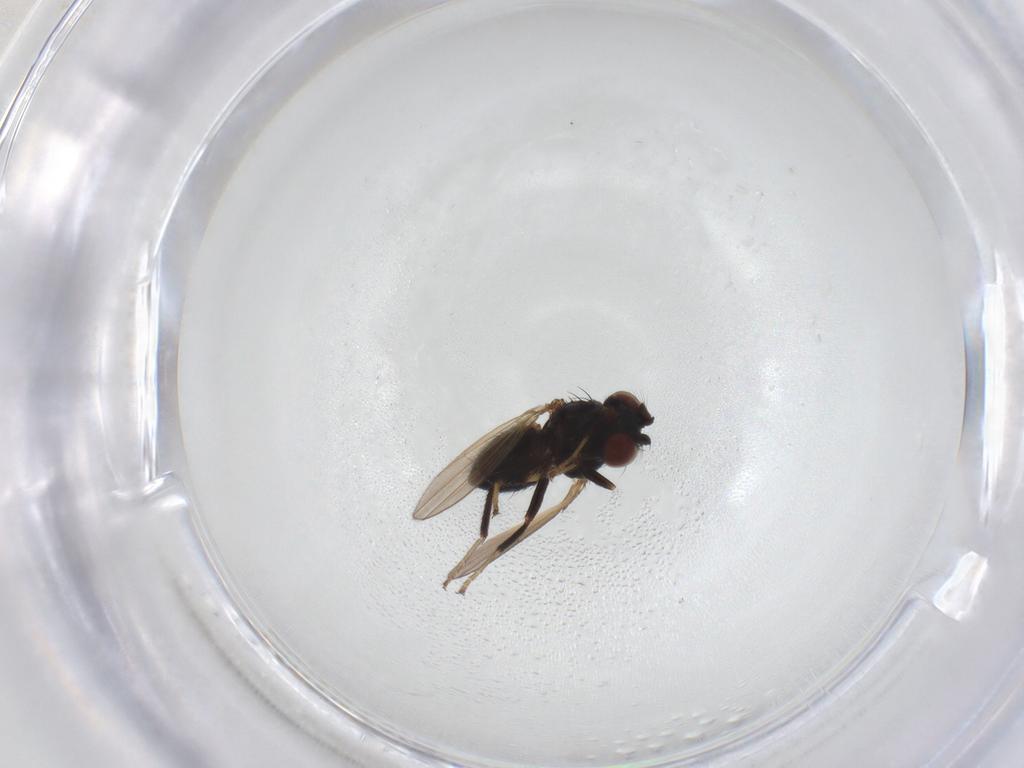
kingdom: Animalia
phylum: Arthropoda
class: Insecta
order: Diptera
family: Ephydridae
